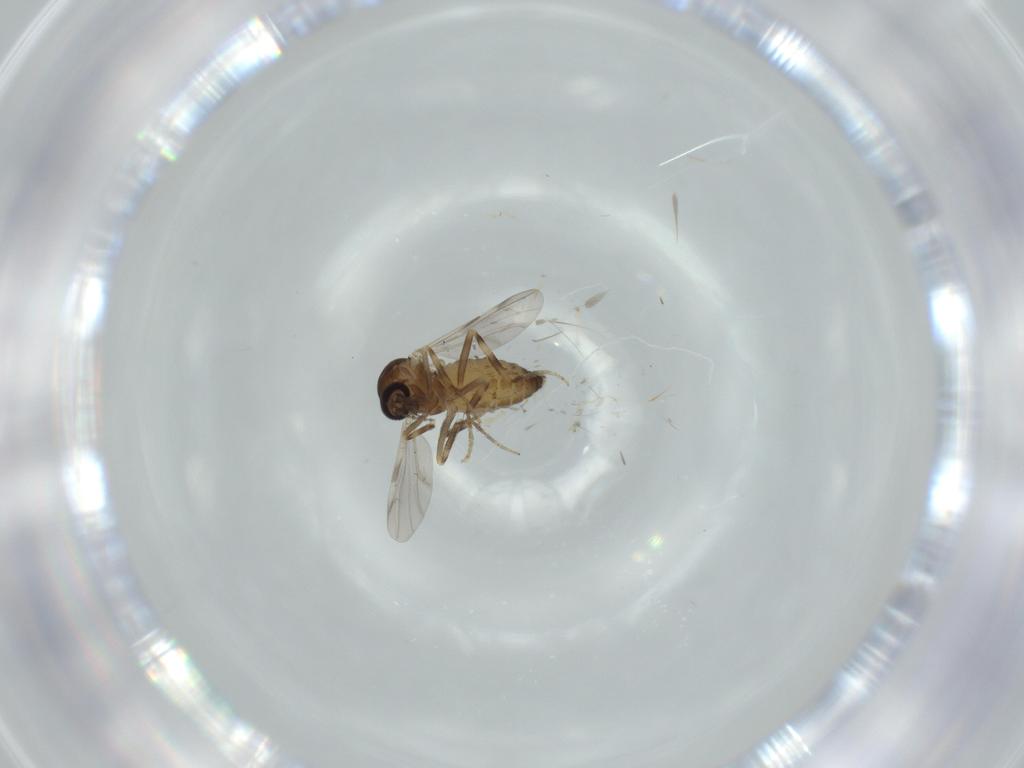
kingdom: Animalia
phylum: Arthropoda
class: Insecta
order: Diptera
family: Ceratopogonidae
